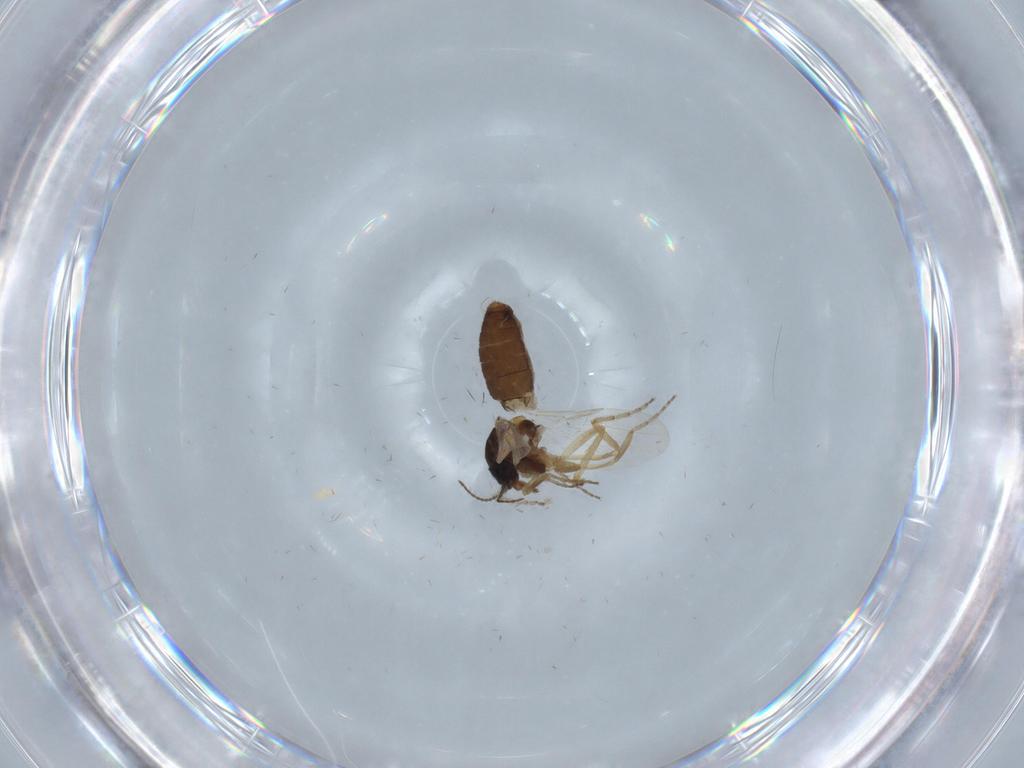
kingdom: Animalia
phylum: Arthropoda
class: Insecta
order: Diptera
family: Ceratopogonidae
